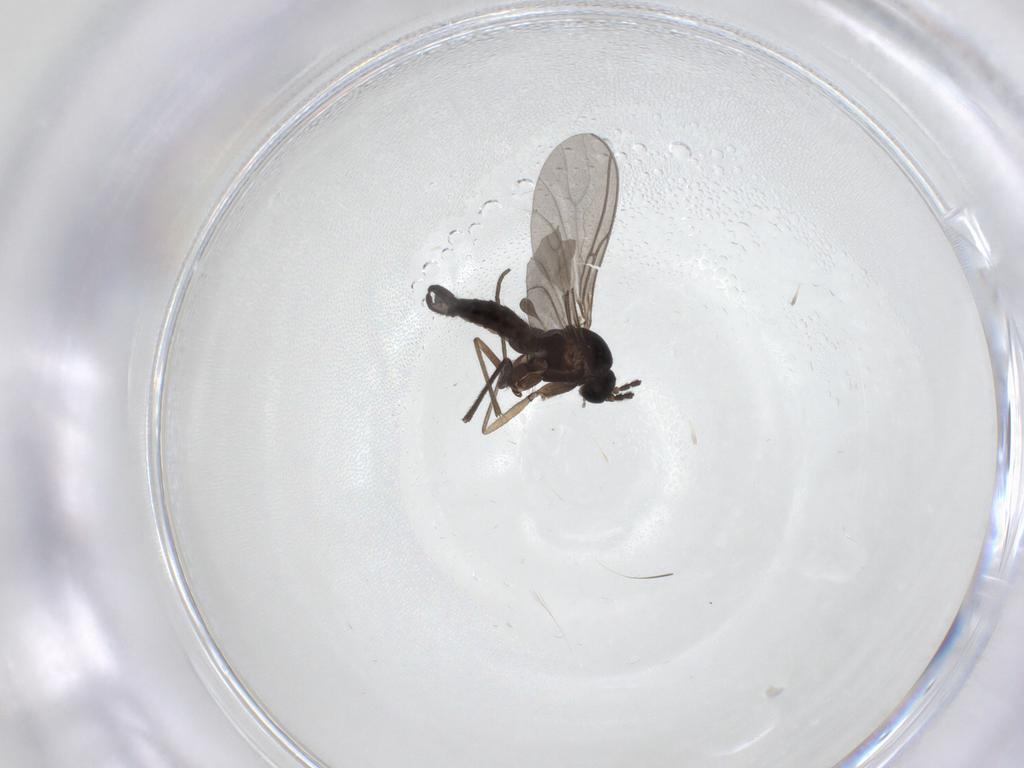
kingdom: Animalia
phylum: Arthropoda
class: Insecta
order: Diptera
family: Sciaridae
